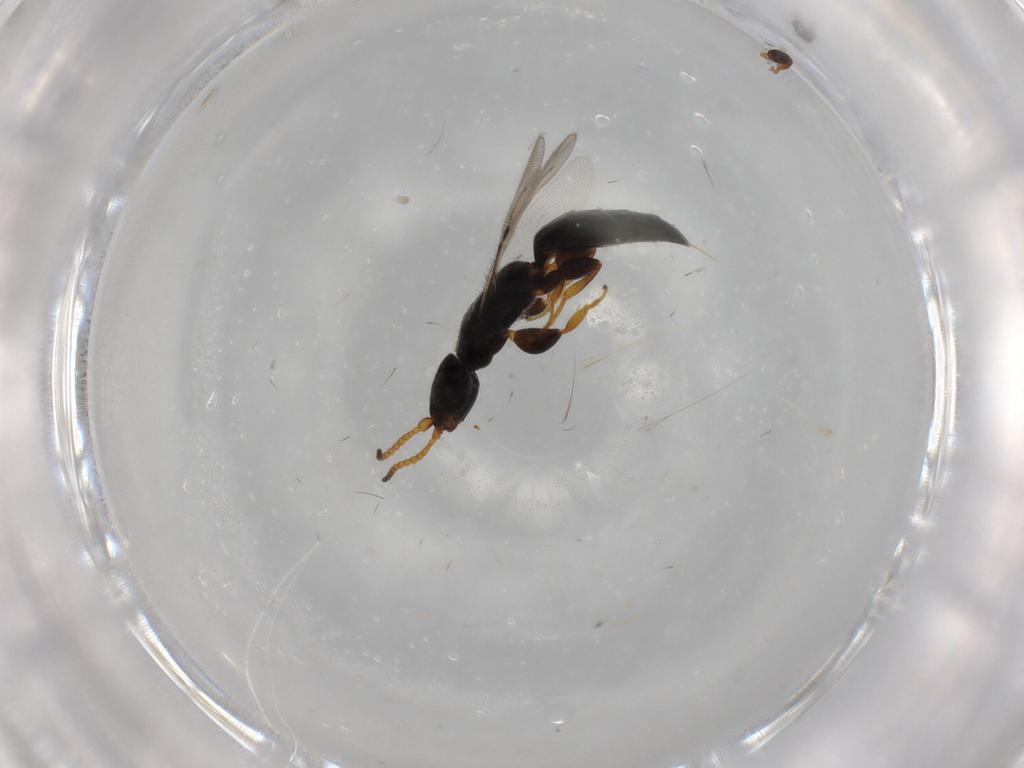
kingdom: Animalia
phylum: Arthropoda
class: Insecta
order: Hymenoptera
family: Bethylidae
